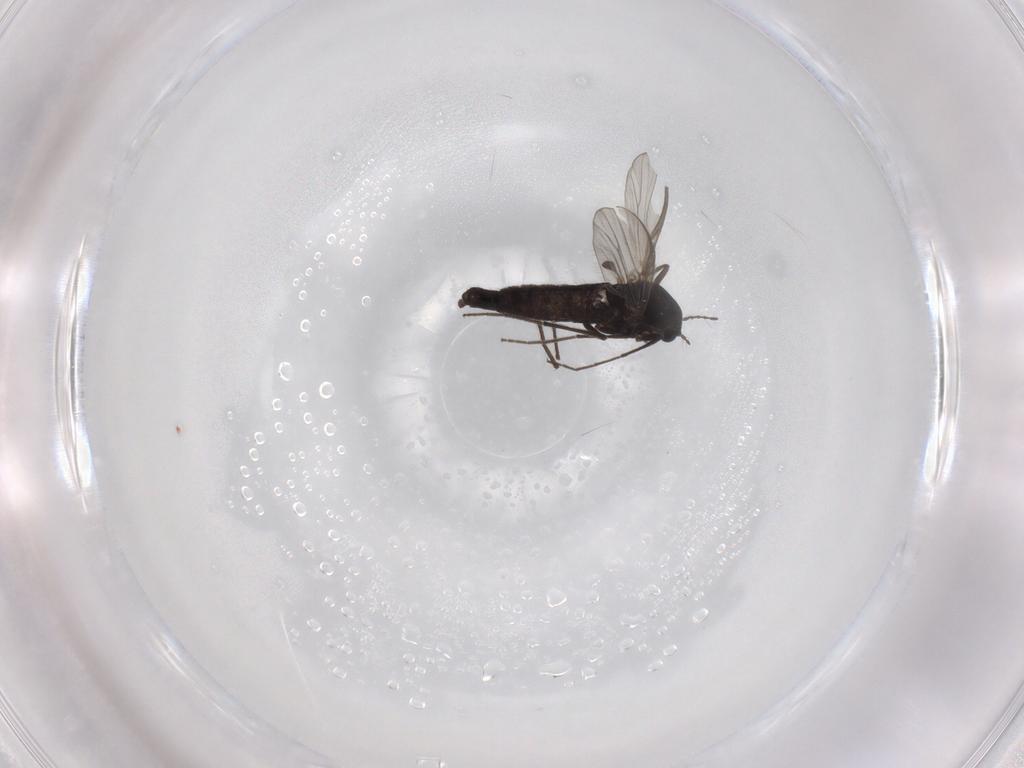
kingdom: Animalia
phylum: Arthropoda
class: Insecta
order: Diptera
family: Chironomidae
